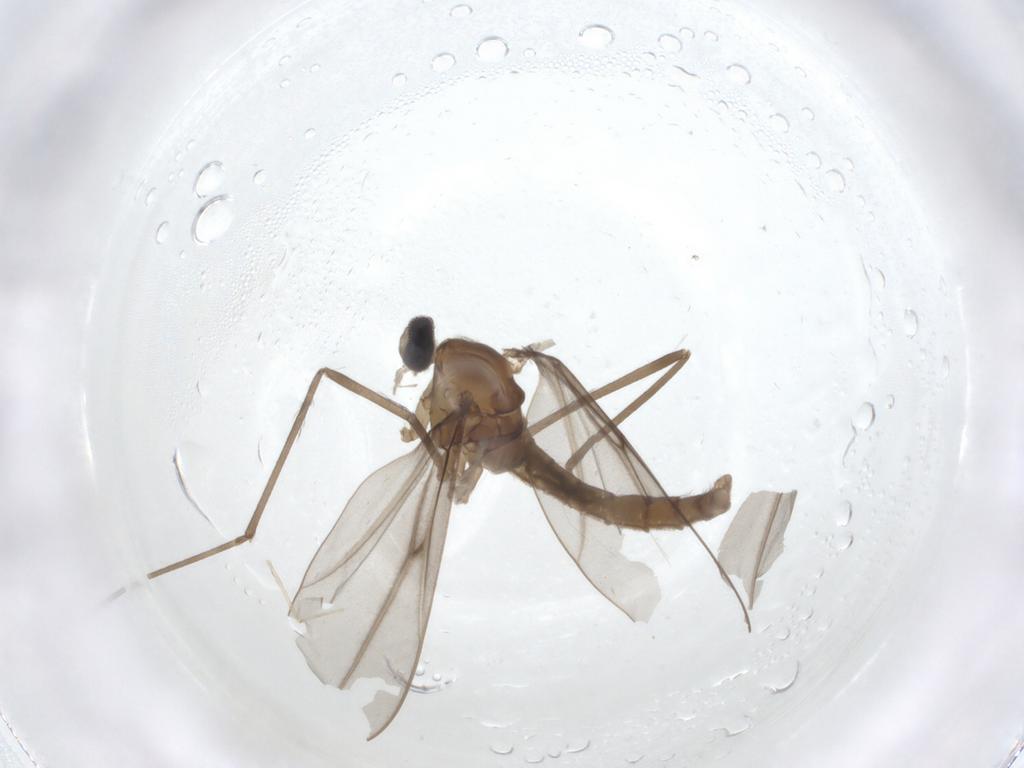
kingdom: Animalia
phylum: Arthropoda
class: Insecta
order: Diptera
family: Cecidomyiidae
